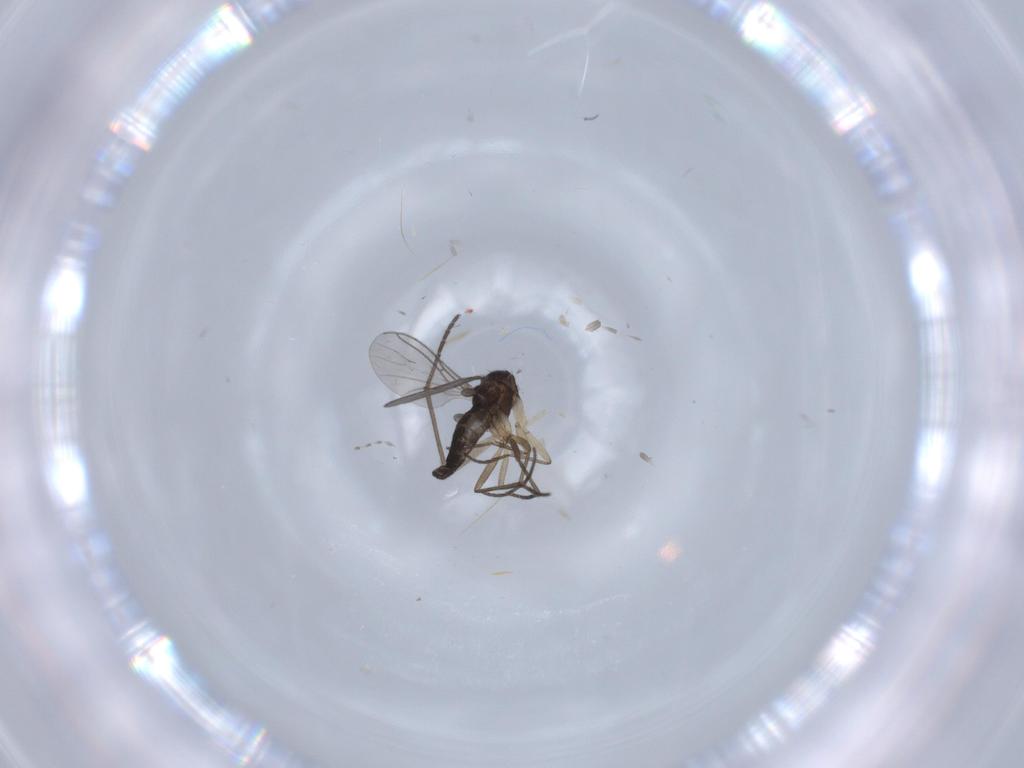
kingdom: Animalia
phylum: Arthropoda
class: Insecta
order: Diptera
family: Sciaridae
